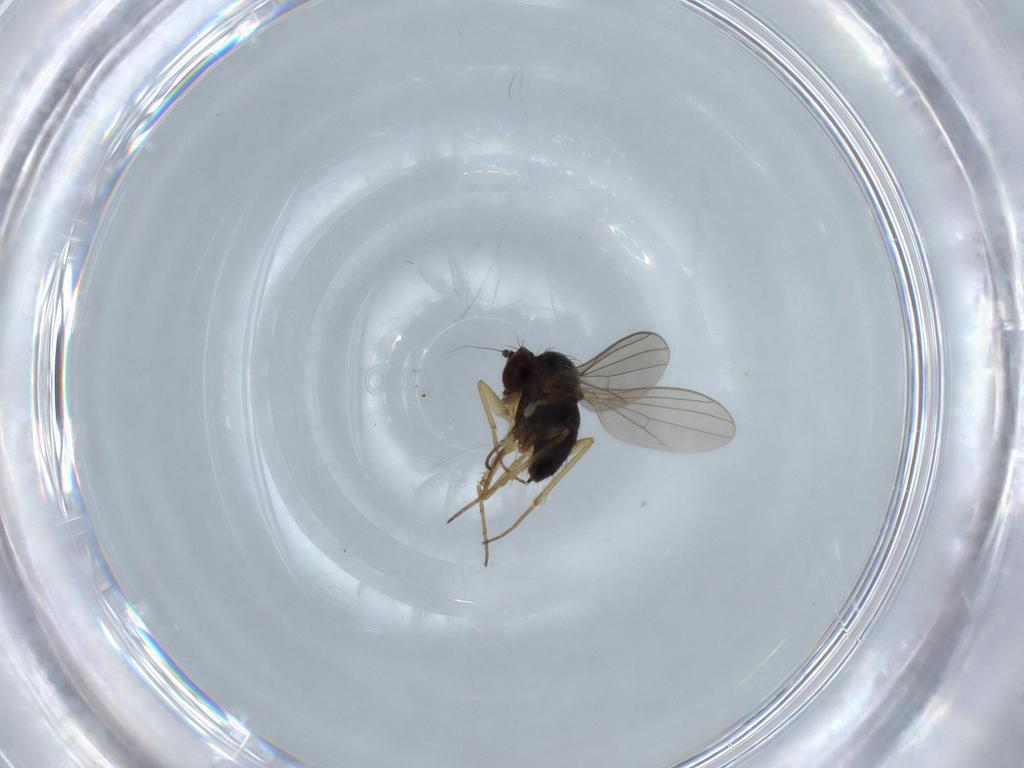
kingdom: Animalia
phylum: Arthropoda
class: Insecta
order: Diptera
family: Dolichopodidae
